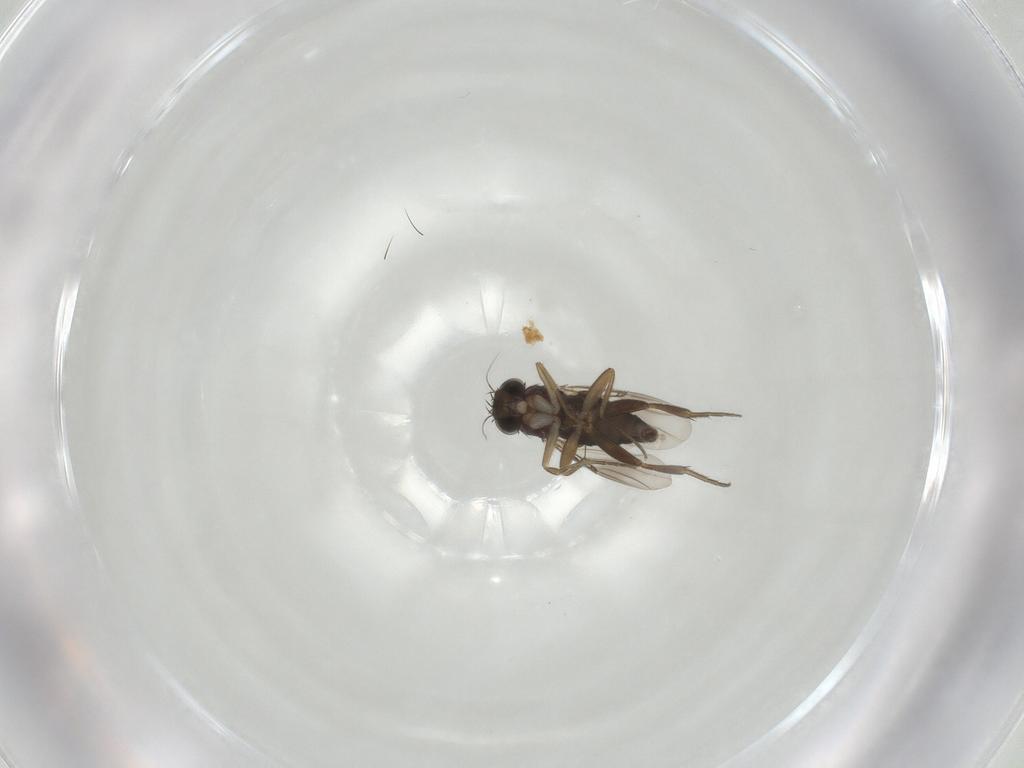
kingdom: Animalia
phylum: Arthropoda
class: Insecta
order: Diptera
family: Phoridae
